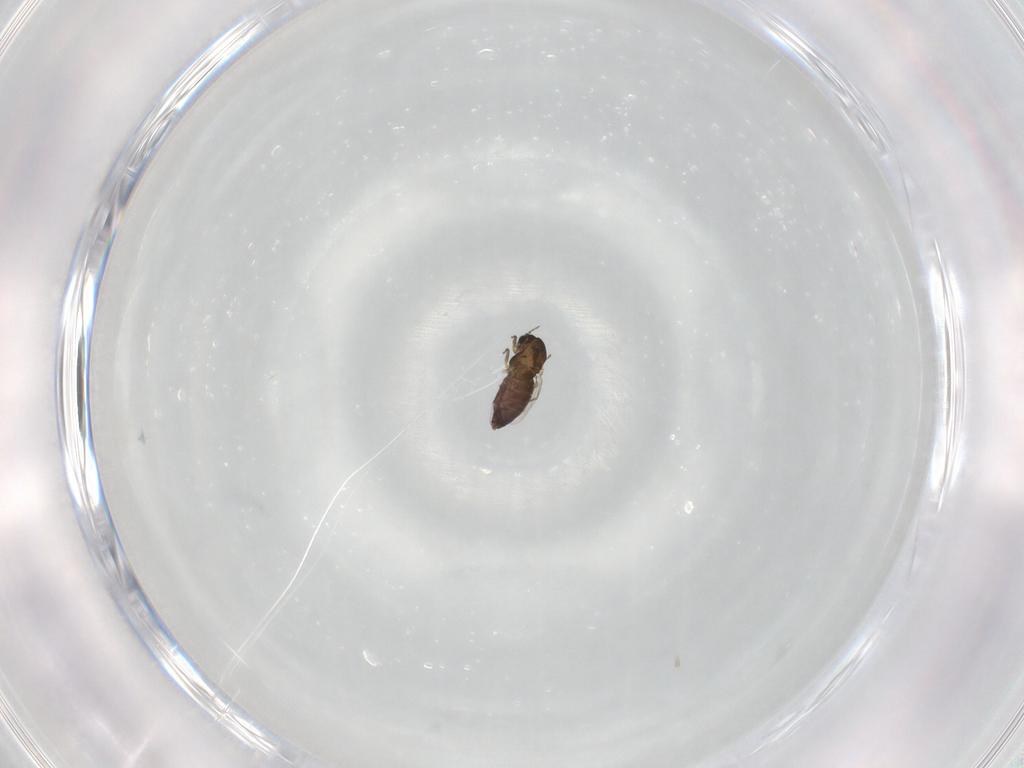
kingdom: Animalia
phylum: Arthropoda
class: Insecta
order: Diptera
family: Chironomidae
